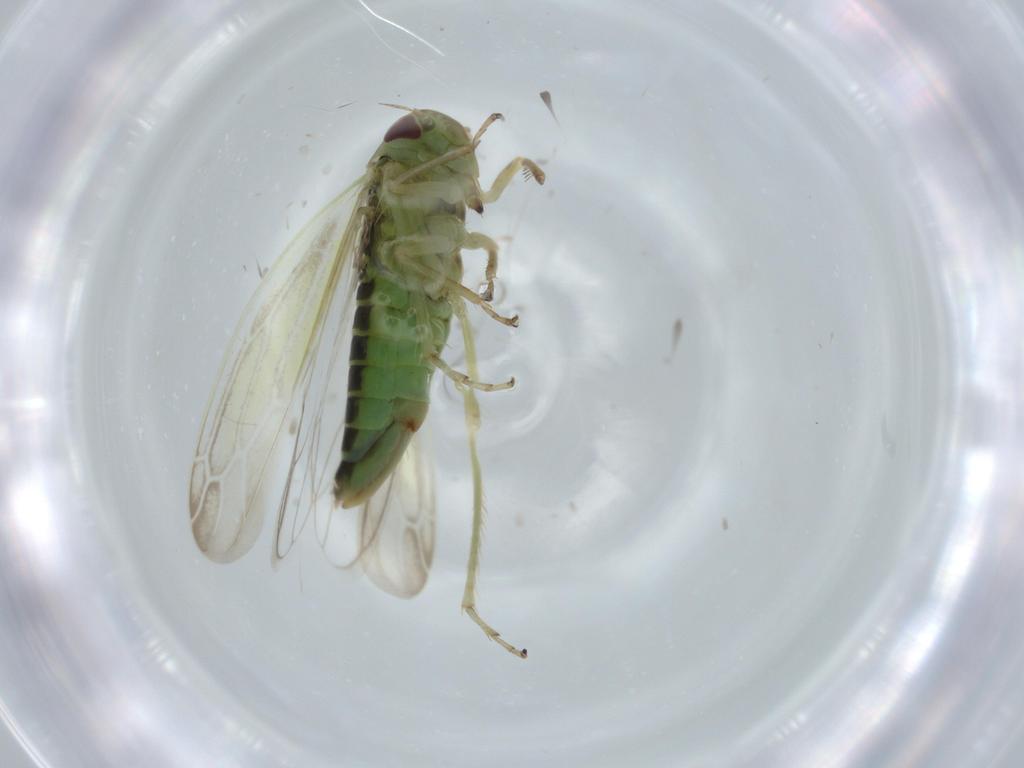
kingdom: Animalia
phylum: Arthropoda
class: Insecta
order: Hemiptera
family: Cicadellidae
